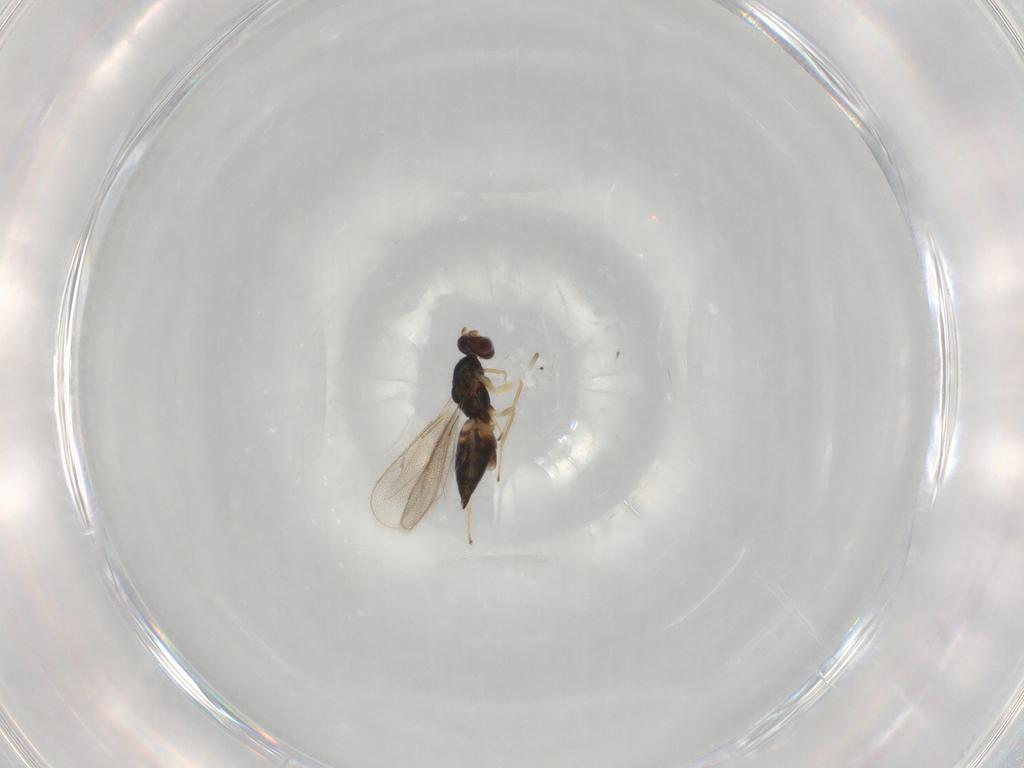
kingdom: Animalia
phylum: Arthropoda
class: Insecta
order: Hymenoptera
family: Eulophidae
